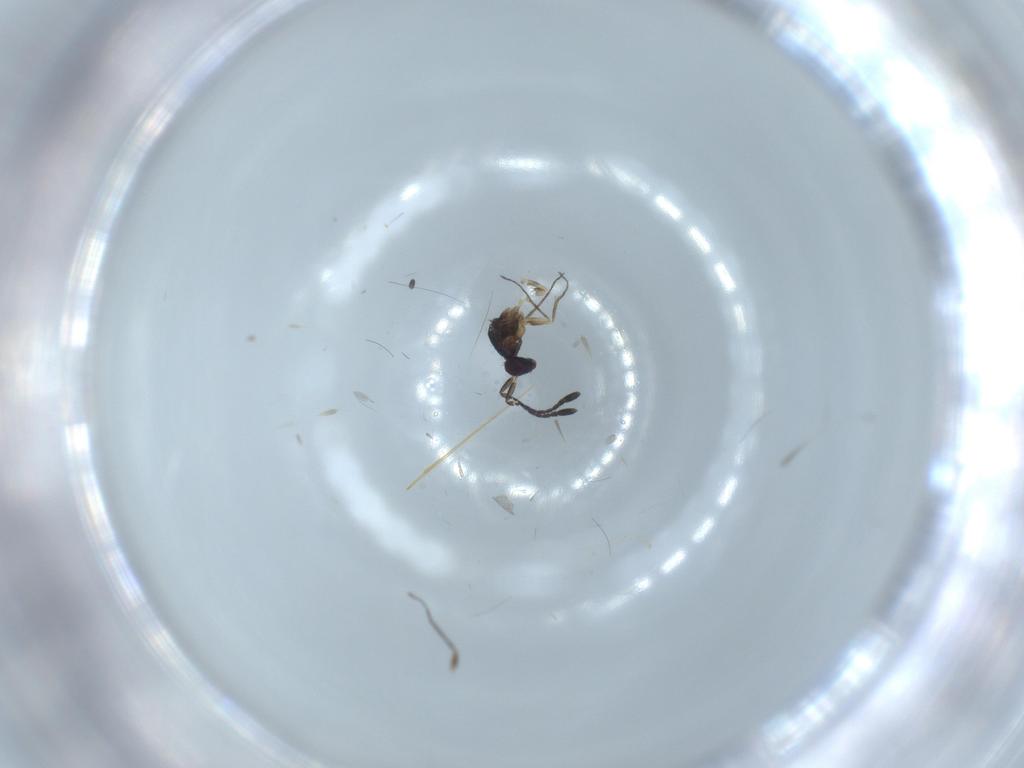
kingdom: Animalia
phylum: Arthropoda
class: Insecta
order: Hymenoptera
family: Mymaridae
